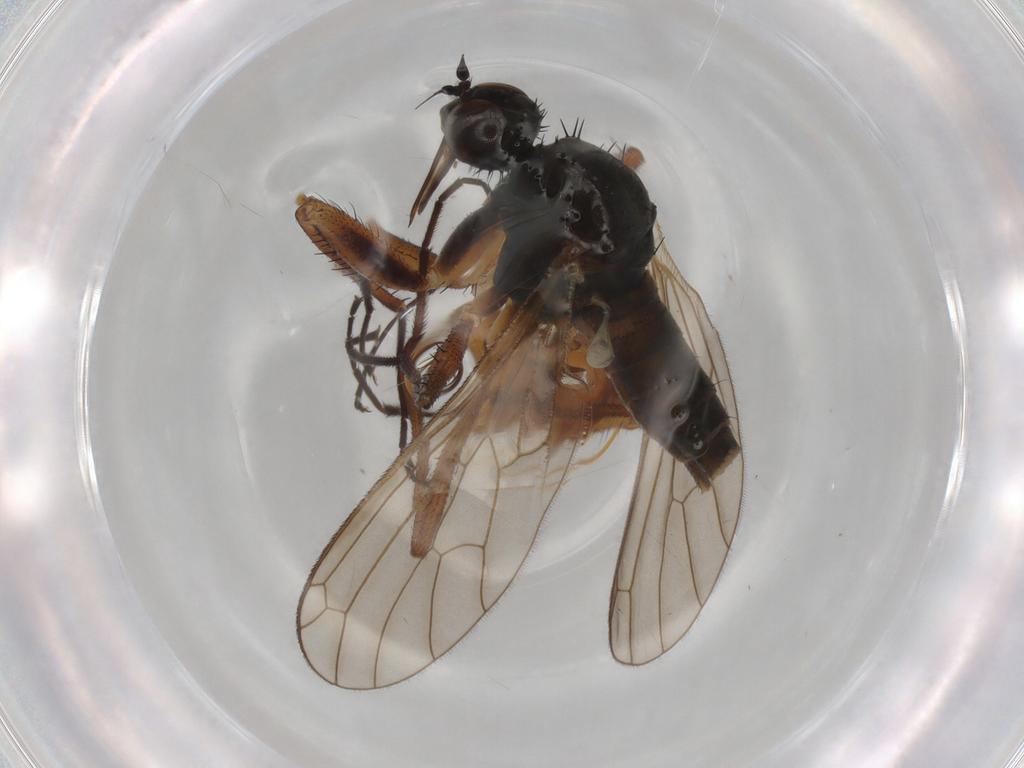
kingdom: Animalia
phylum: Arthropoda
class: Insecta
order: Diptera
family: Empididae
